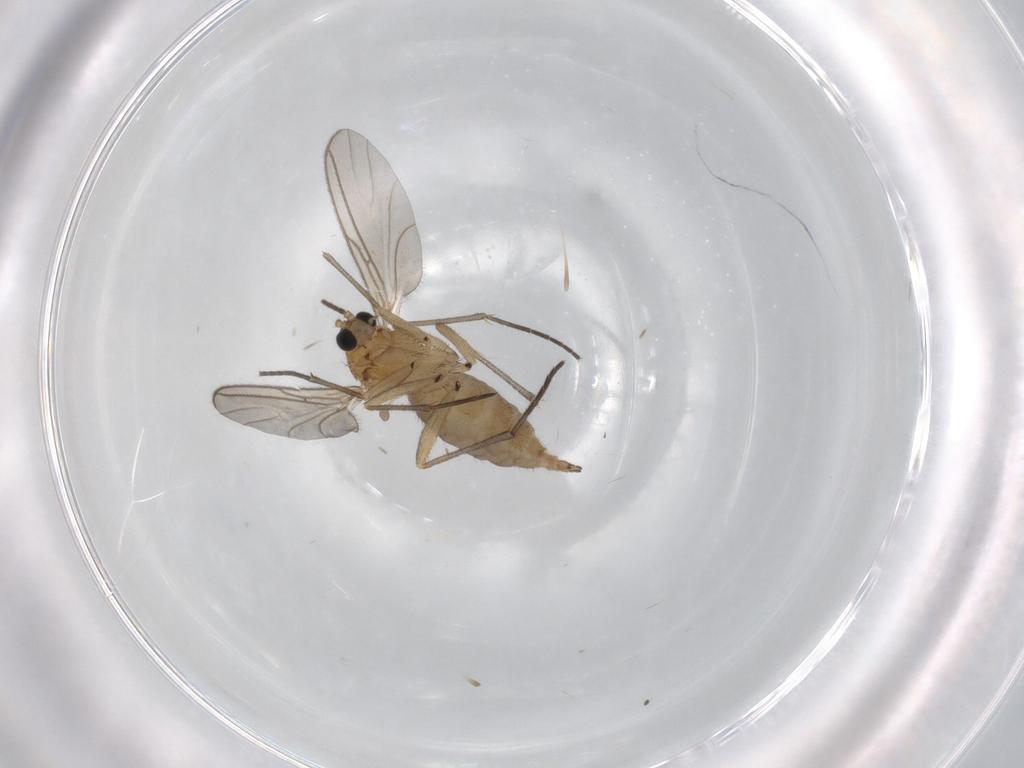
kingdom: Animalia
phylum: Arthropoda
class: Insecta
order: Diptera
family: Sciaridae
